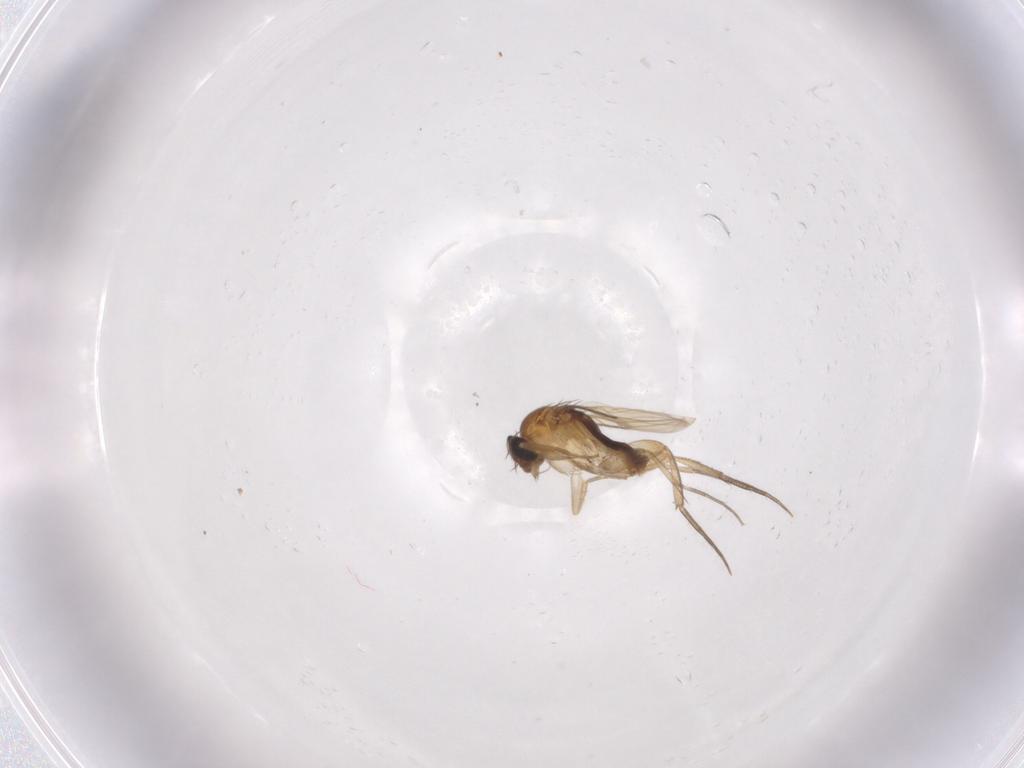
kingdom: Animalia
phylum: Arthropoda
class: Insecta
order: Diptera
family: Phoridae
